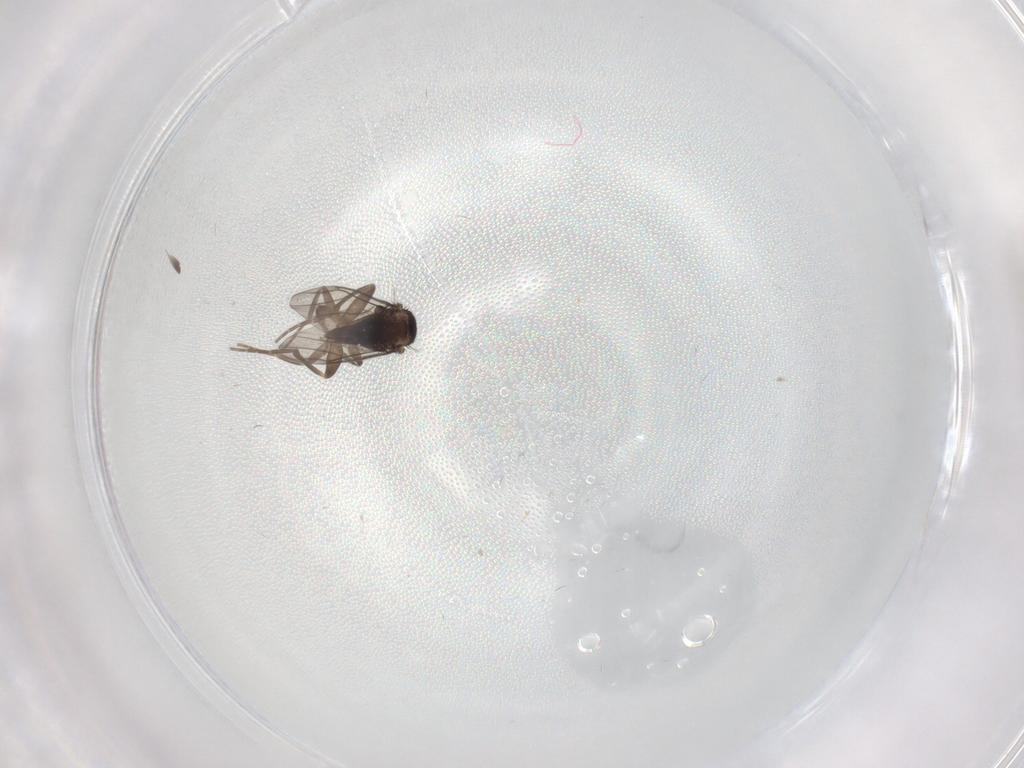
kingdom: Animalia
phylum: Arthropoda
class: Insecta
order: Diptera
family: Phoridae
